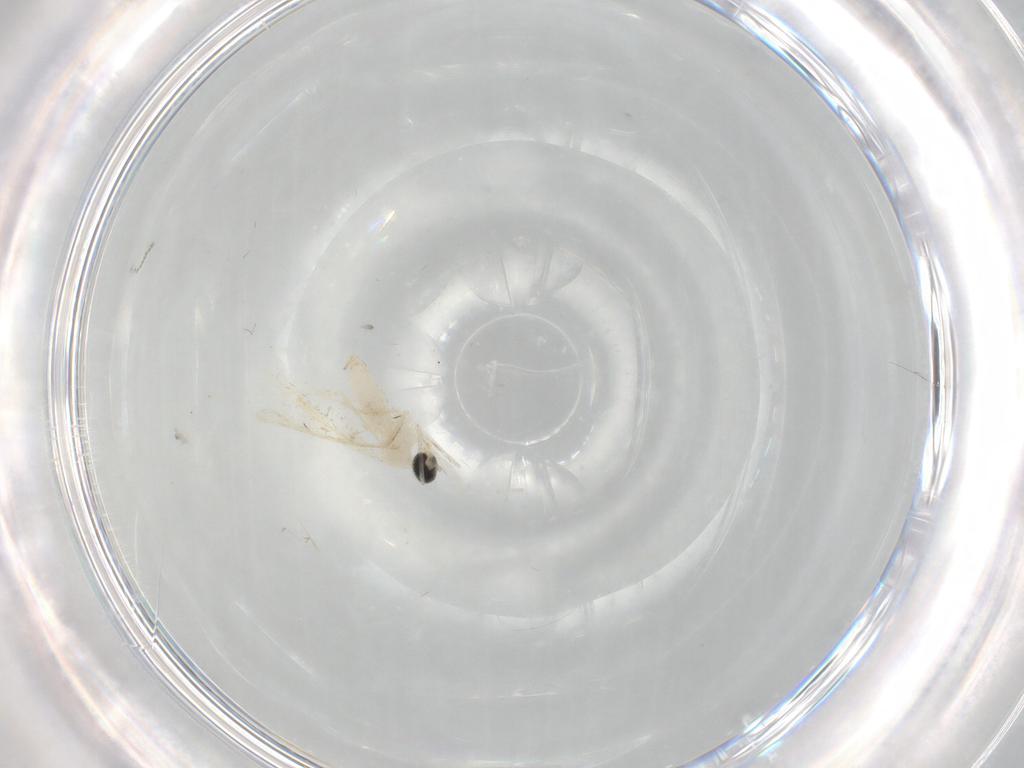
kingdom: Animalia
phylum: Arthropoda
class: Insecta
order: Diptera
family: Cecidomyiidae
